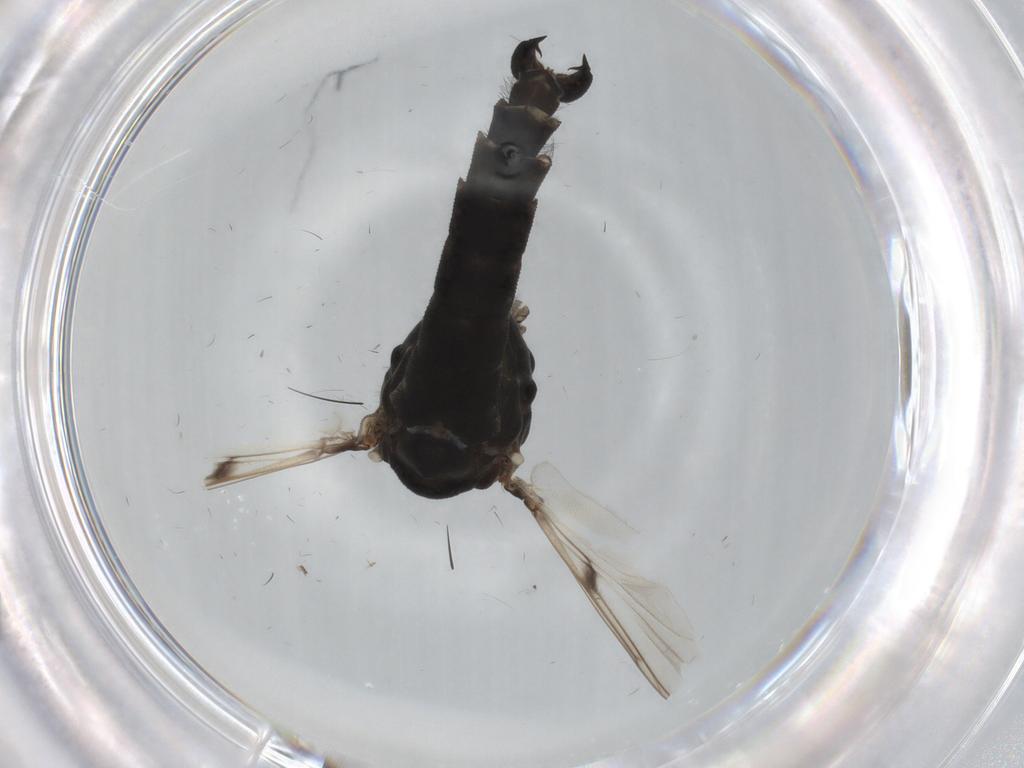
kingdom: Animalia
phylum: Arthropoda
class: Insecta
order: Diptera
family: Chironomidae
